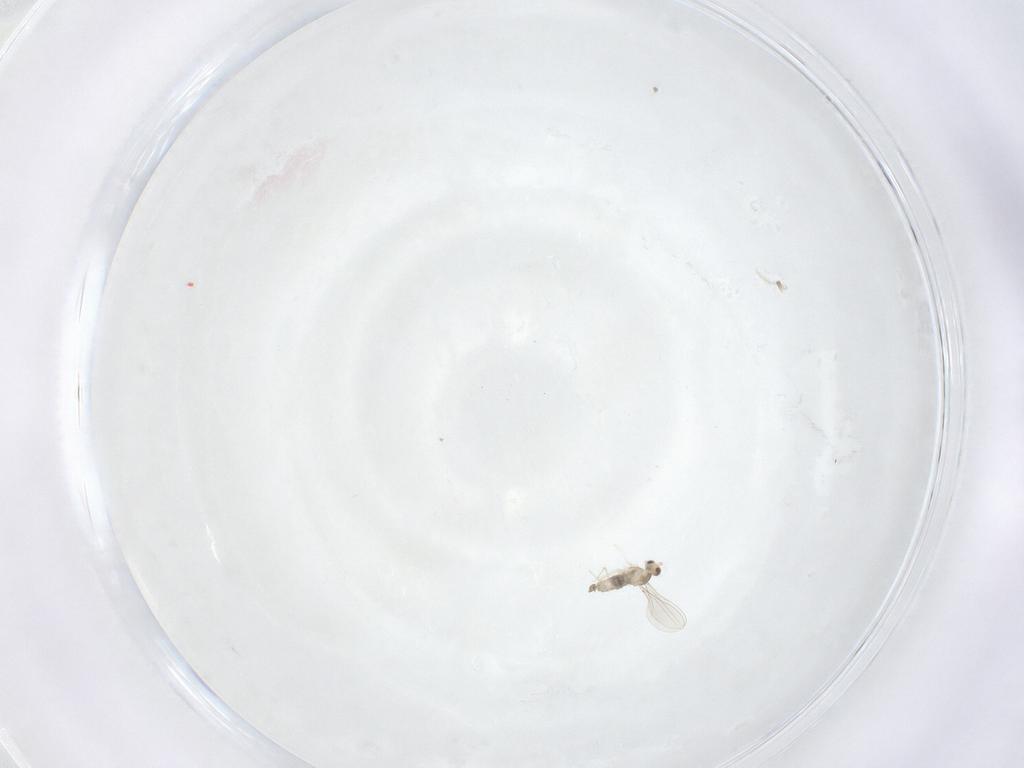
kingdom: Animalia
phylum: Arthropoda
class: Insecta
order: Diptera
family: Cecidomyiidae
